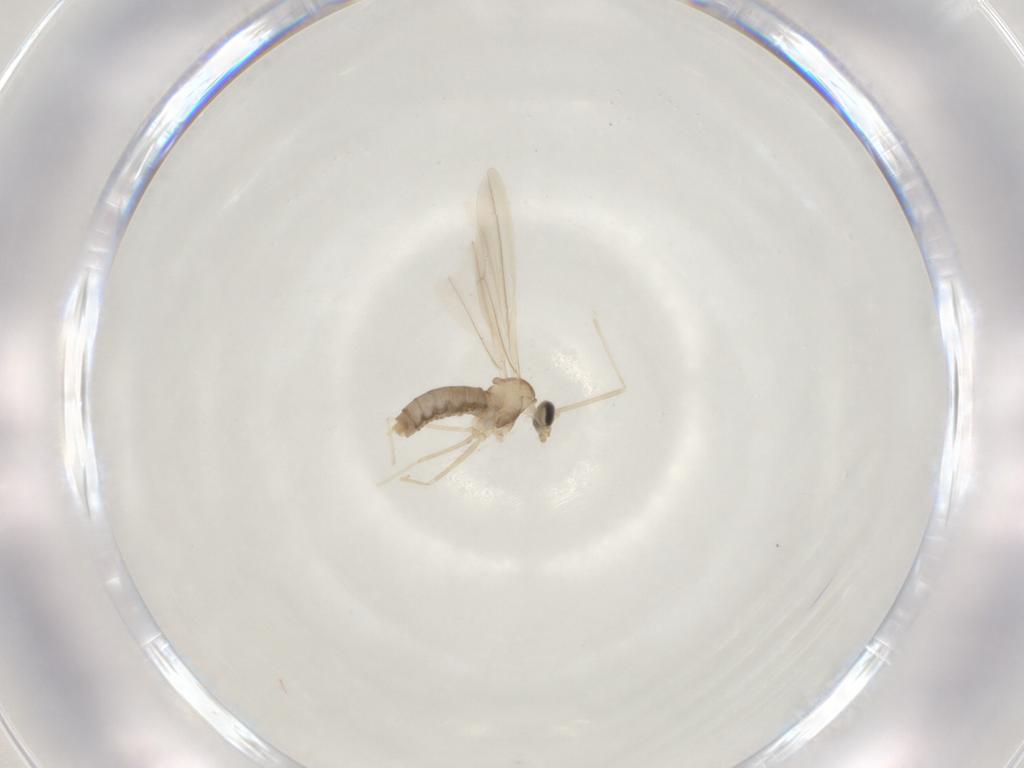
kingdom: Animalia
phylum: Arthropoda
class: Insecta
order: Diptera
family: Cecidomyiidae
